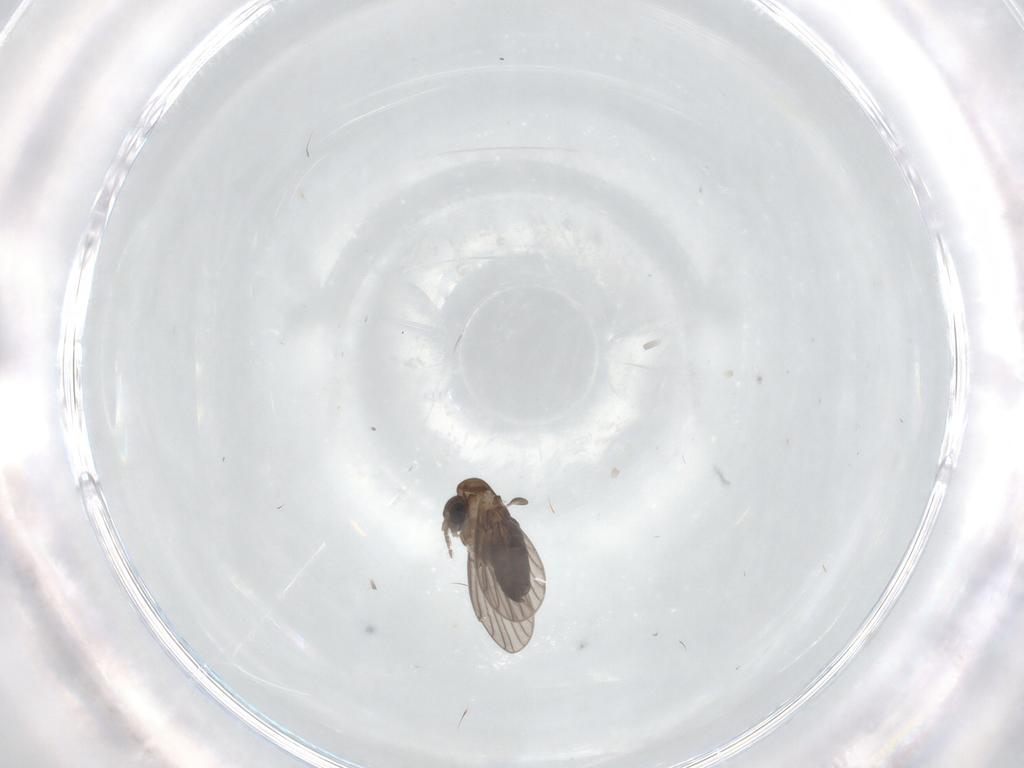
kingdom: Animalia
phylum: Arthropoda
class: Insecta
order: Diptera
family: Psychodidae
